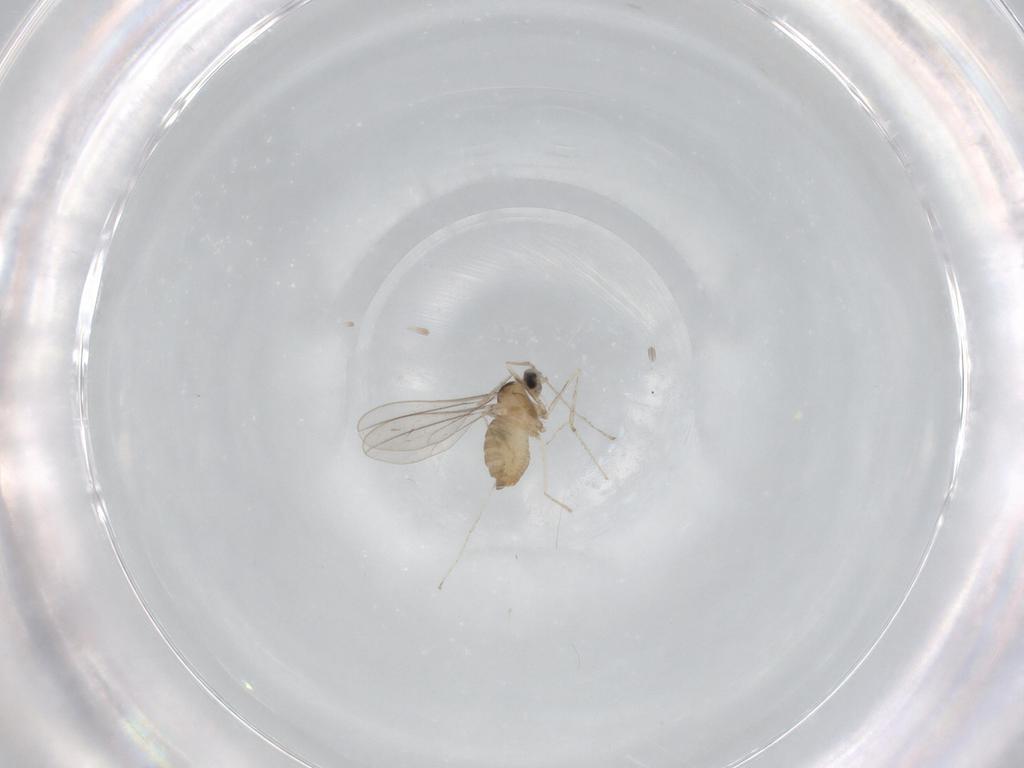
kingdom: Animalia
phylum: Arthropoda
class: Insecta
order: Diptera
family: Cecidomyiidae
